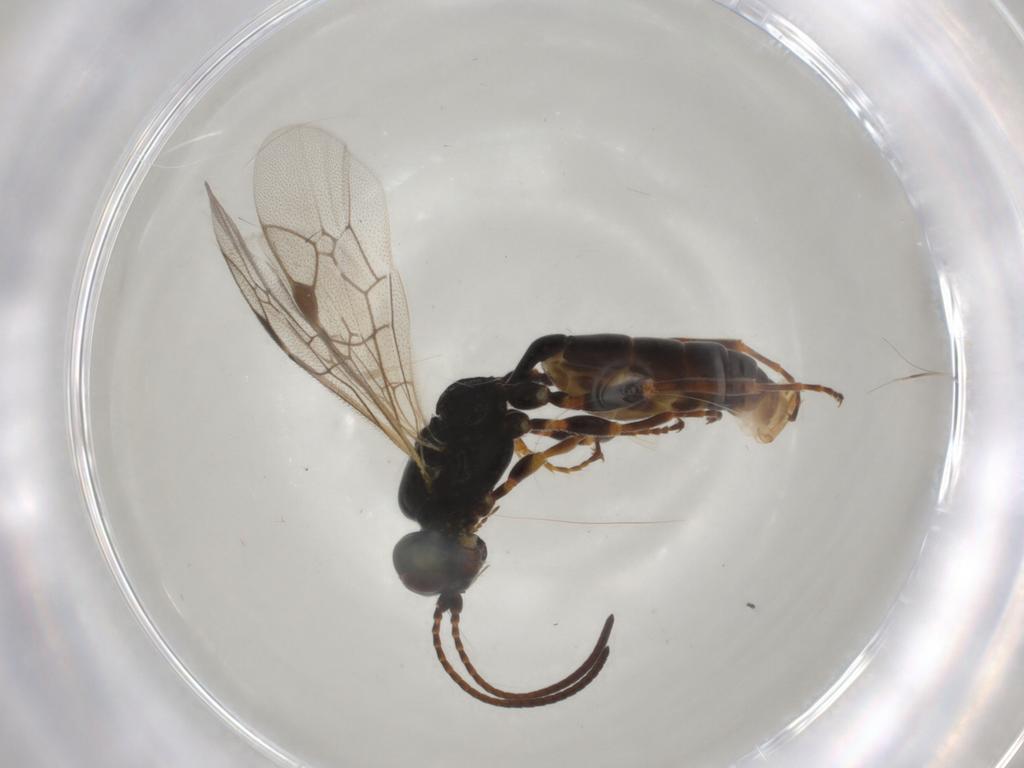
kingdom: Animalia
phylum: Arthropoda
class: Insecta
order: Hymenoptera
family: Ichneumonidae
